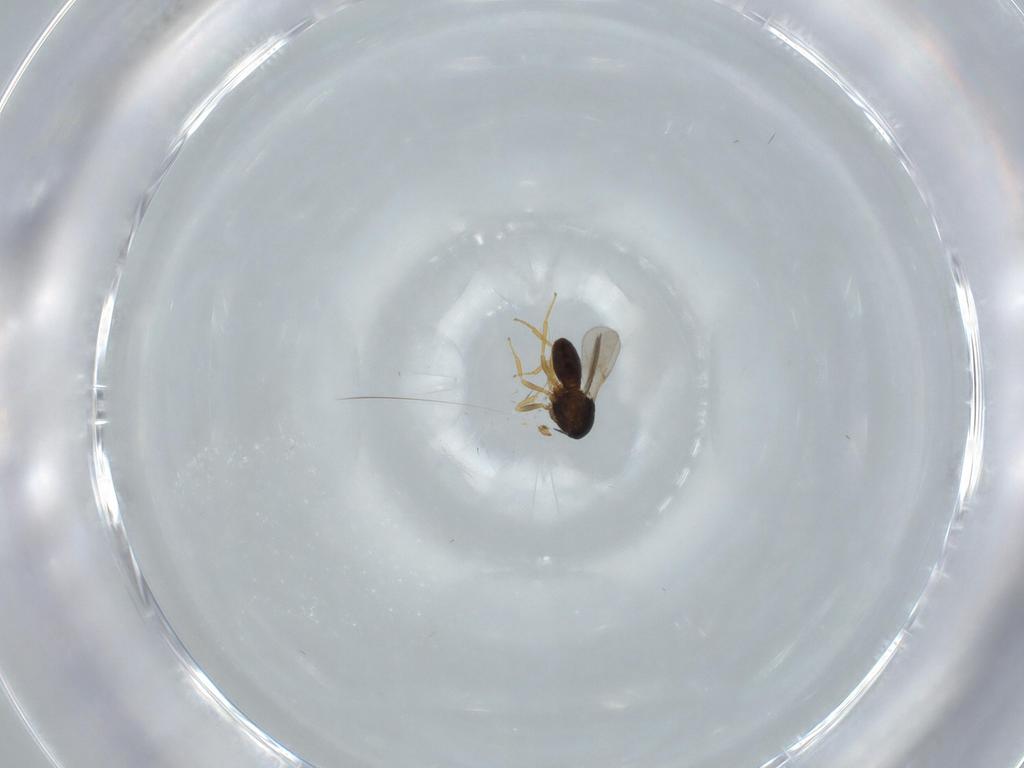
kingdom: Animalia
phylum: Arthropoda
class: Insecta
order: Hymenoptera
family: Scelionidae
